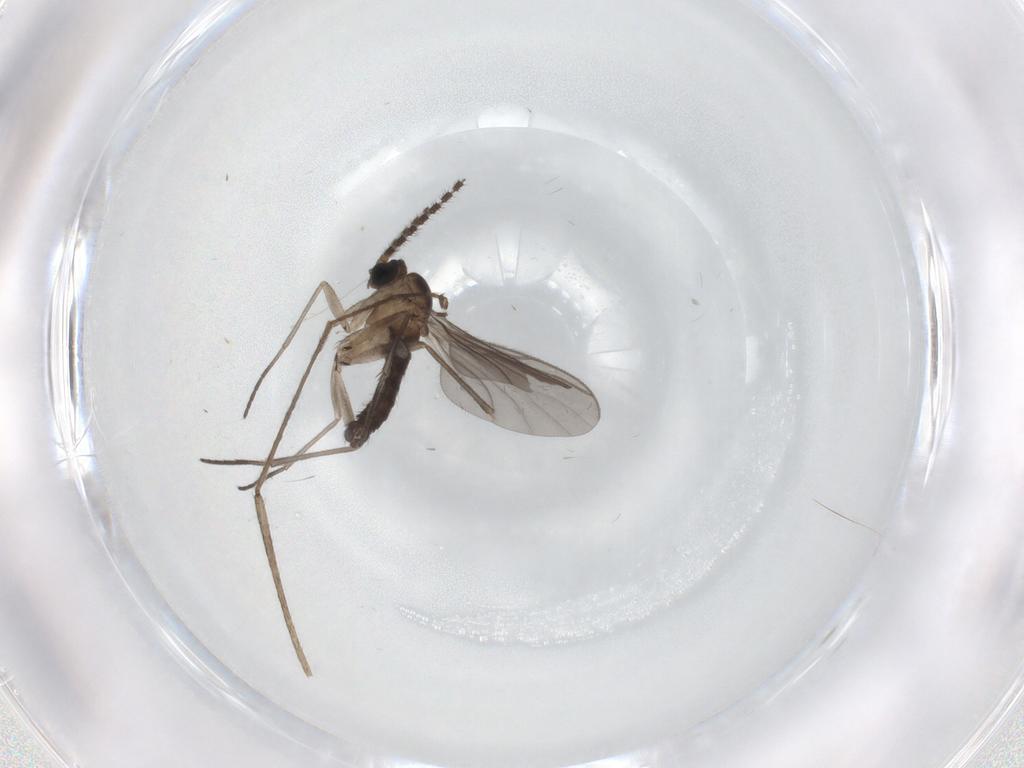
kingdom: Animalia
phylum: Arthropoda
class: Insecta
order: Diptera
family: Sciaridae
